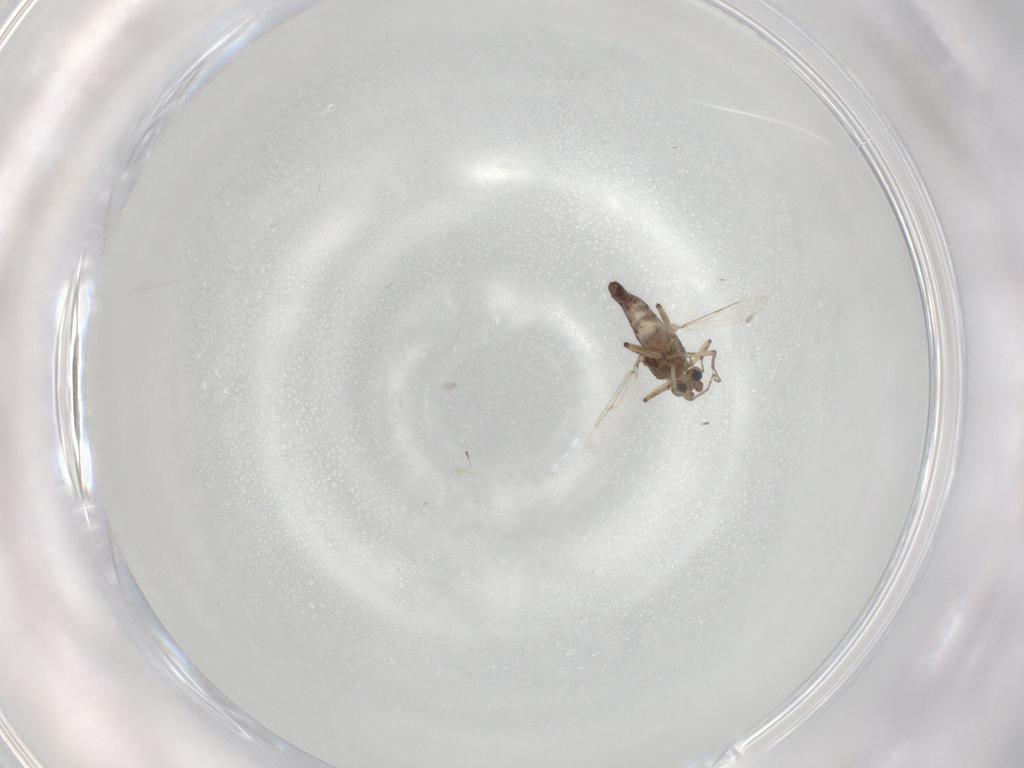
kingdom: Animalia
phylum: Arthropoda
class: Insecta
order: Diptera
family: Ceratopogonidae
